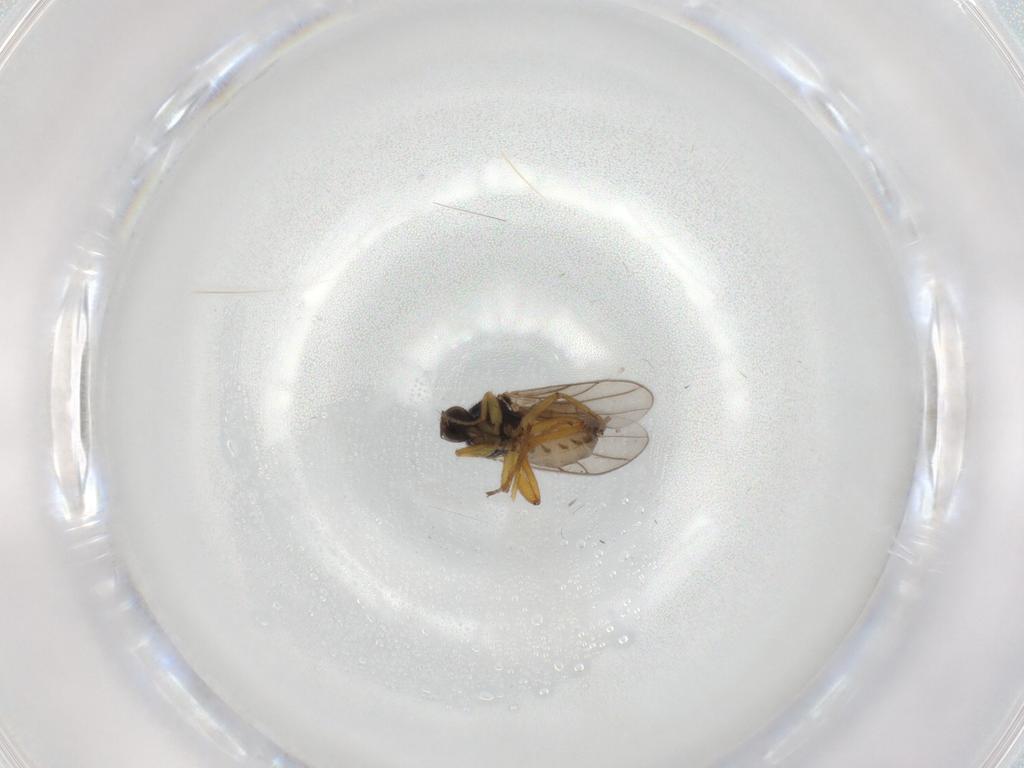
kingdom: Animalia
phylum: Arthropoda
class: Insecta
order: Diptera
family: Hybotidae
